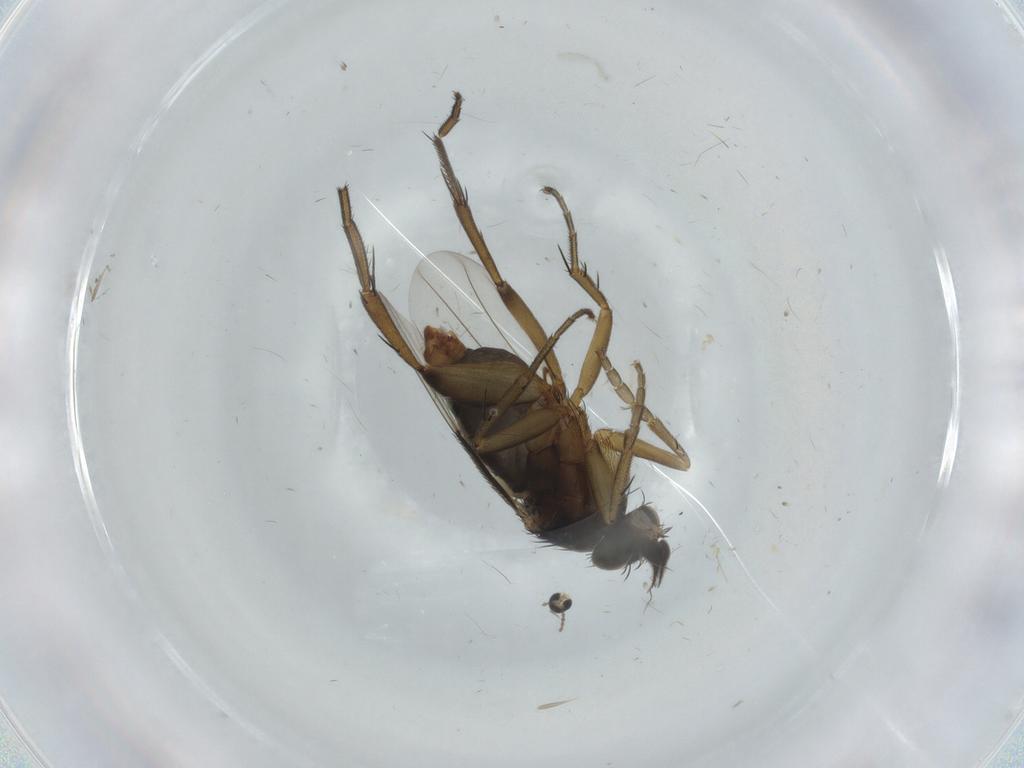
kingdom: Animalia
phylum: Arthropoda
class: Insecta
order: Diptera
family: Phoridae
